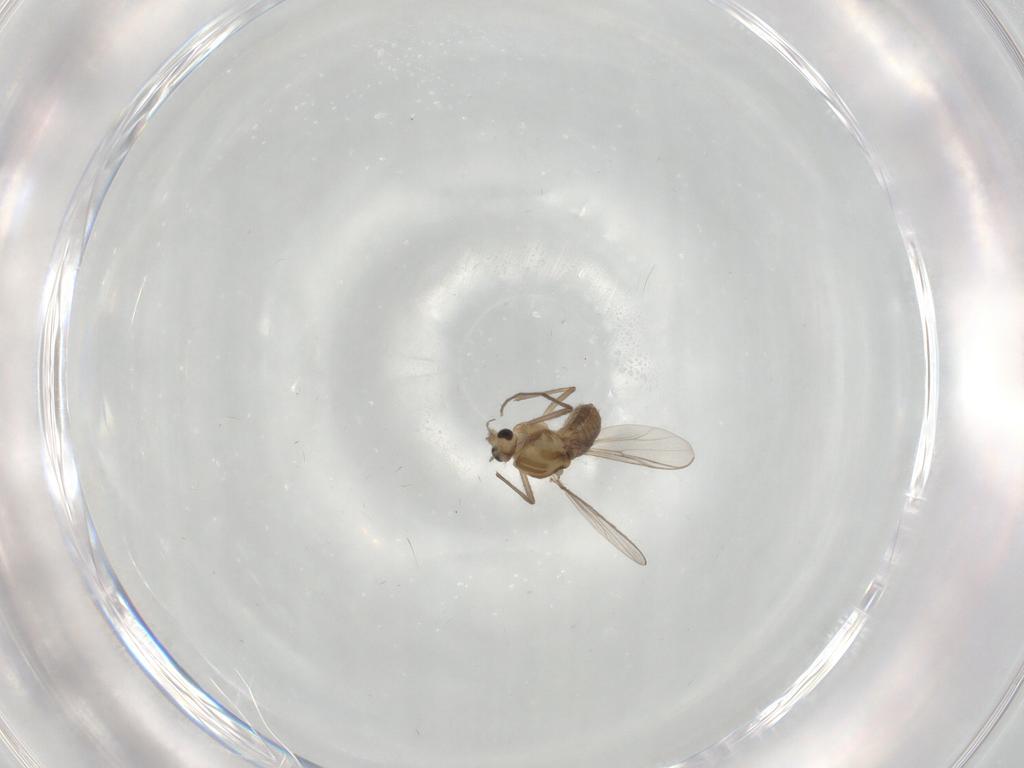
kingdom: Animalia
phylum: Arthropoda
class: Insecta
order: Diptera
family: Chironomidae
